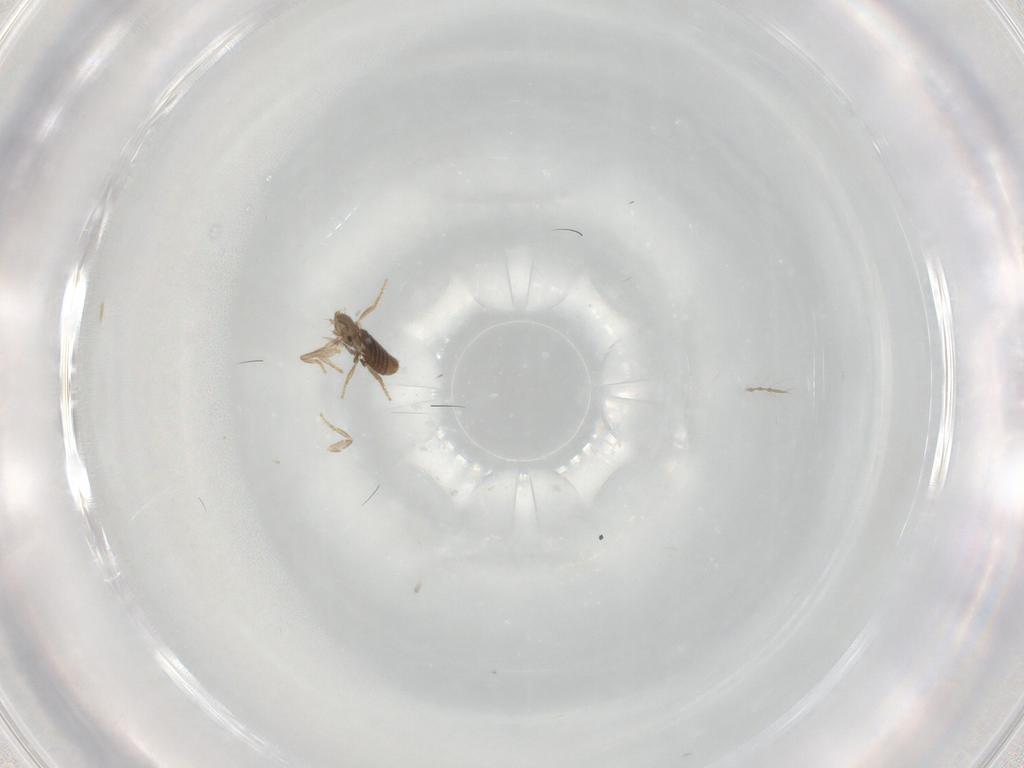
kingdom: Animalia
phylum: Arthropoda
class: Insecta
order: Diptera
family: Chironomidae
